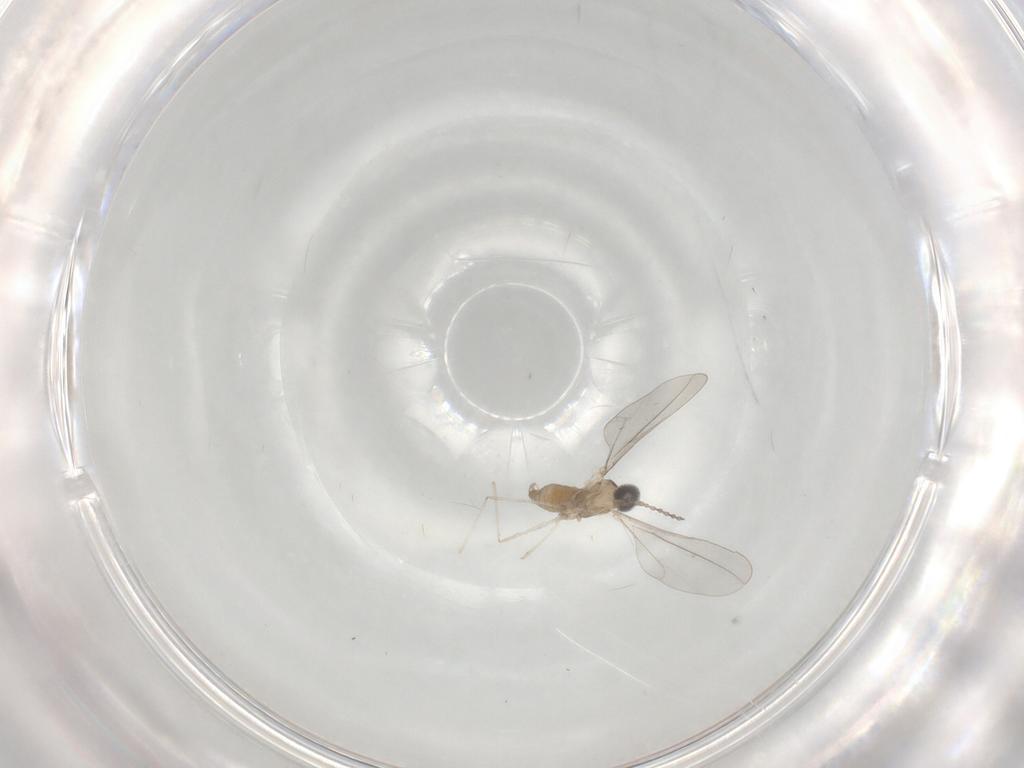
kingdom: Animalia
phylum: Arthropoda
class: Insecta
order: Diptera
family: Cecidomyiidae
